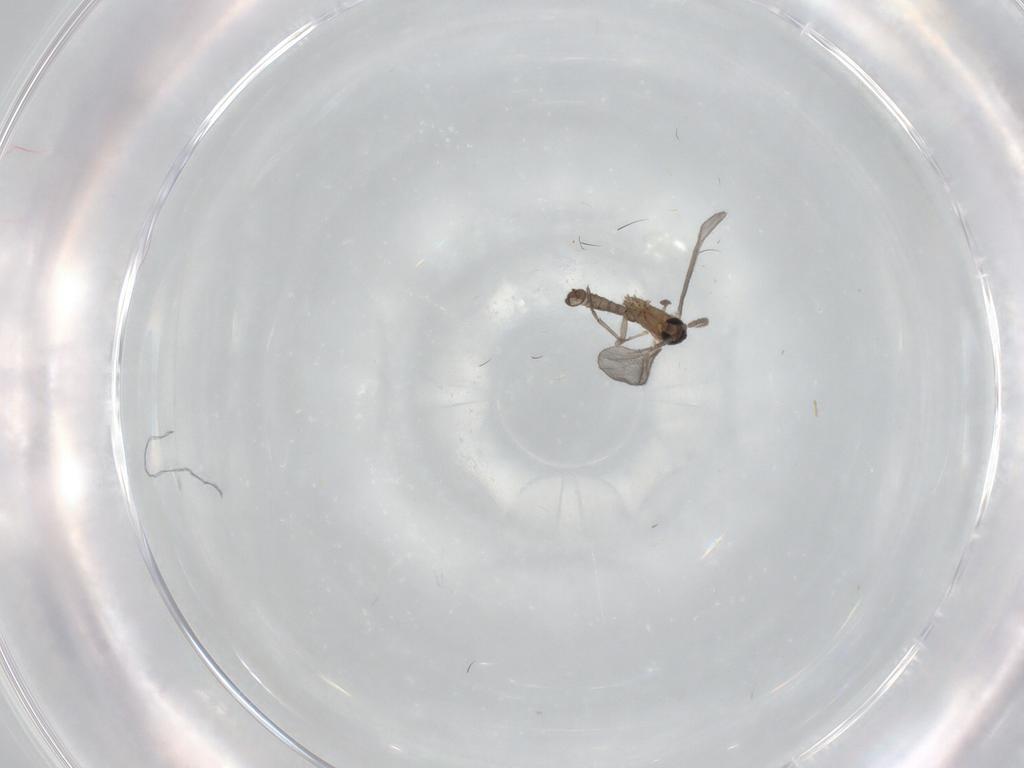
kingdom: Animalia
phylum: Arthropoda
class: Insecta
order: Diptera
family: Sciaridae
